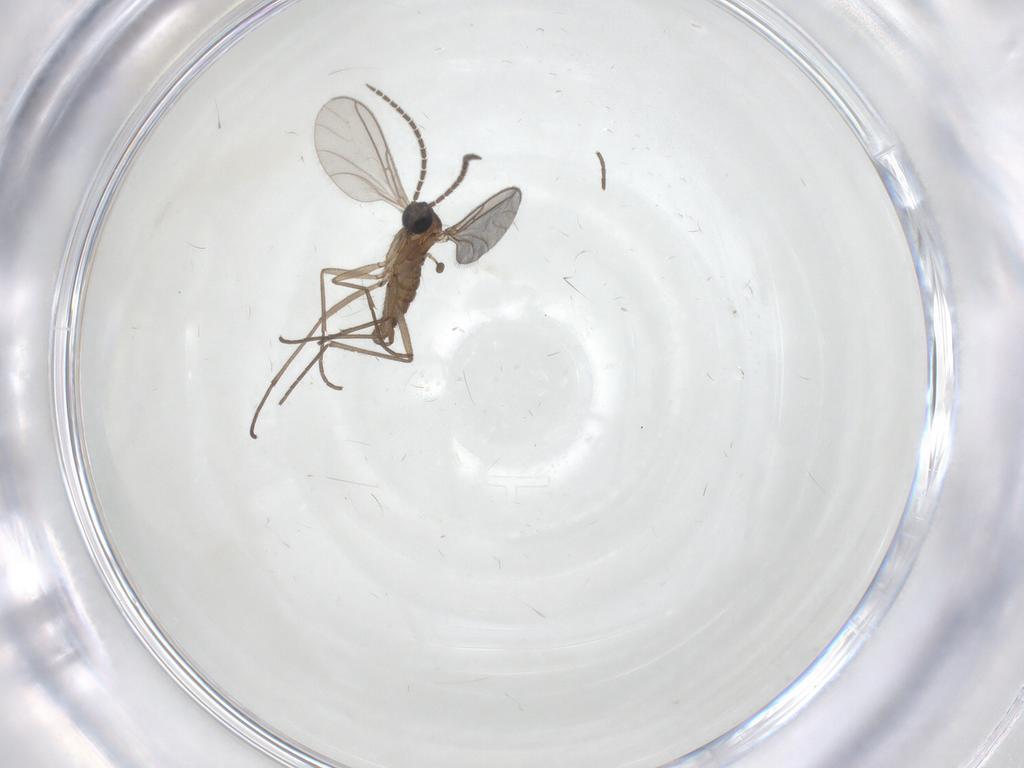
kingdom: Animalia
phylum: Arthropoda
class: Insecta
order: Diptera
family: Sciaridae
